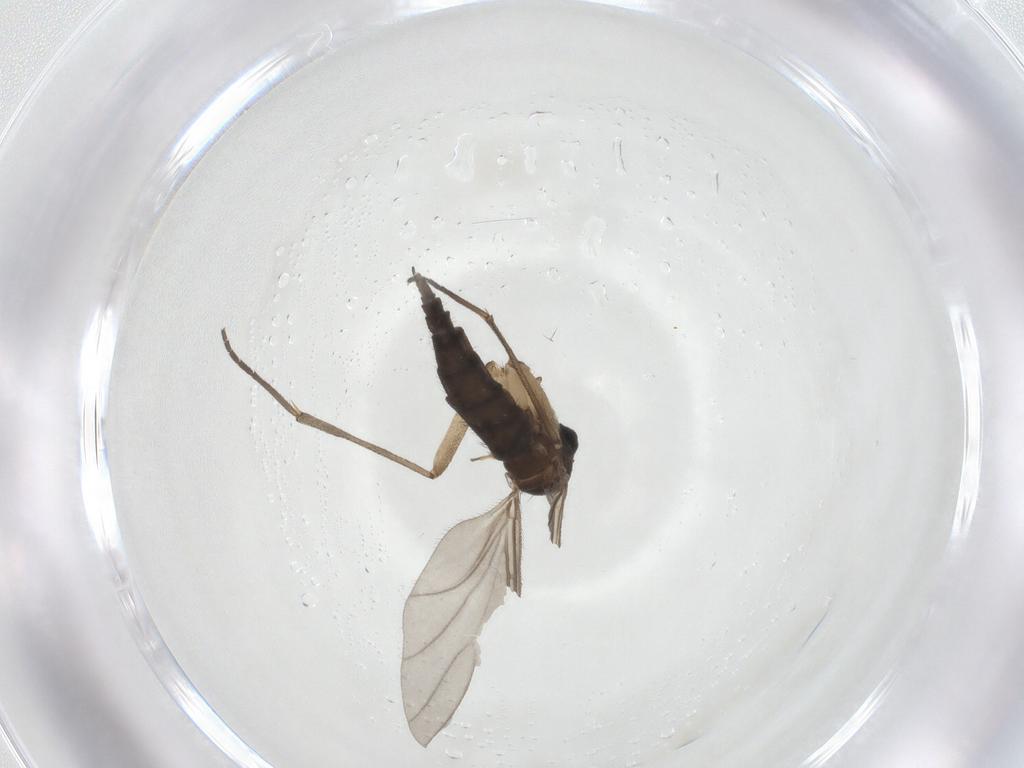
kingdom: Animalia
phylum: Arthropoda
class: Insecta
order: Diptera
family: Sciaridae
